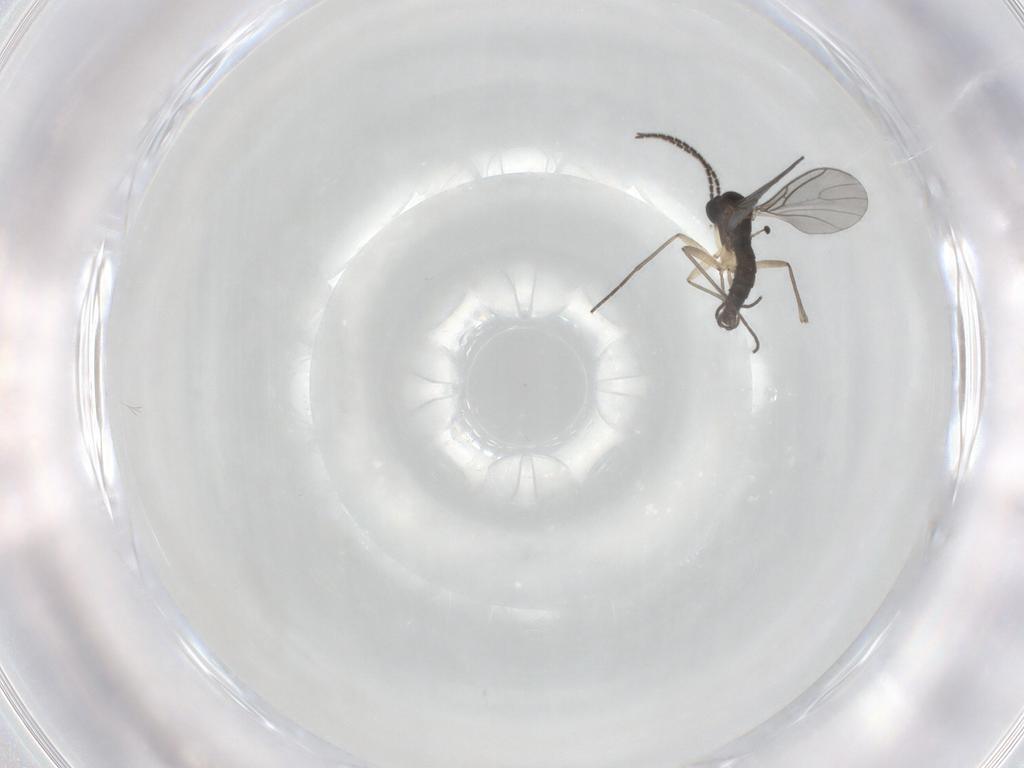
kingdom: Animalia
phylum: Arthropoda
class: Insecta
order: Diptera
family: Sciaridae
